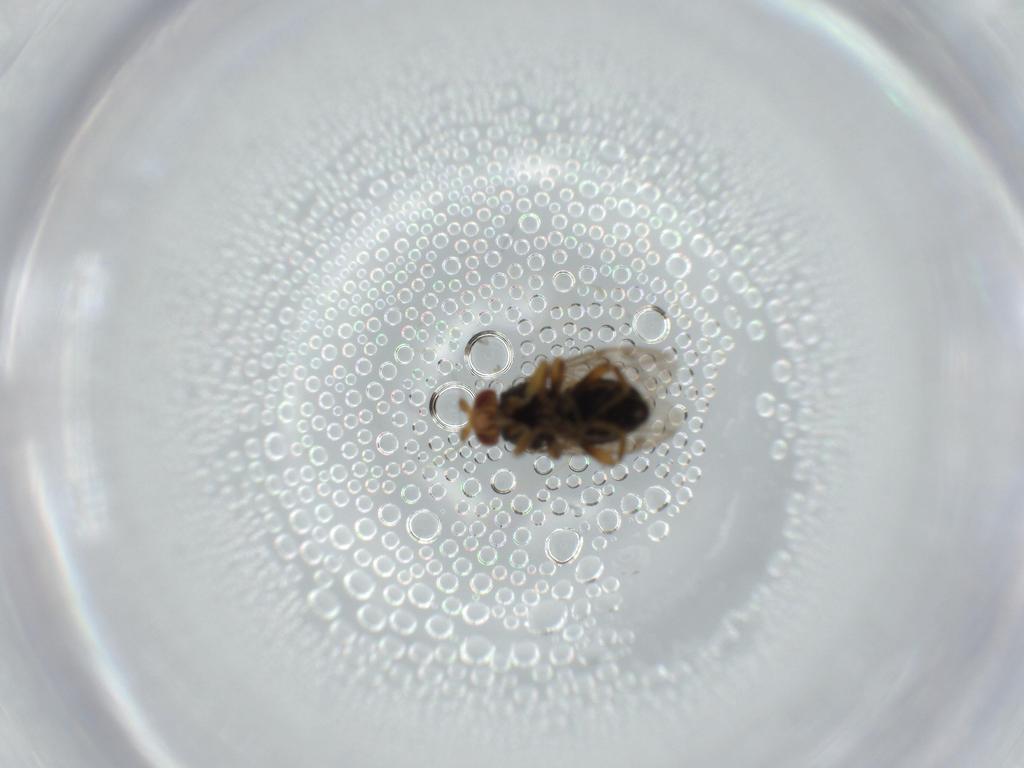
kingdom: Animalia
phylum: Arthropoda
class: Insecta
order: Diptera
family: Sphaeroceridae
